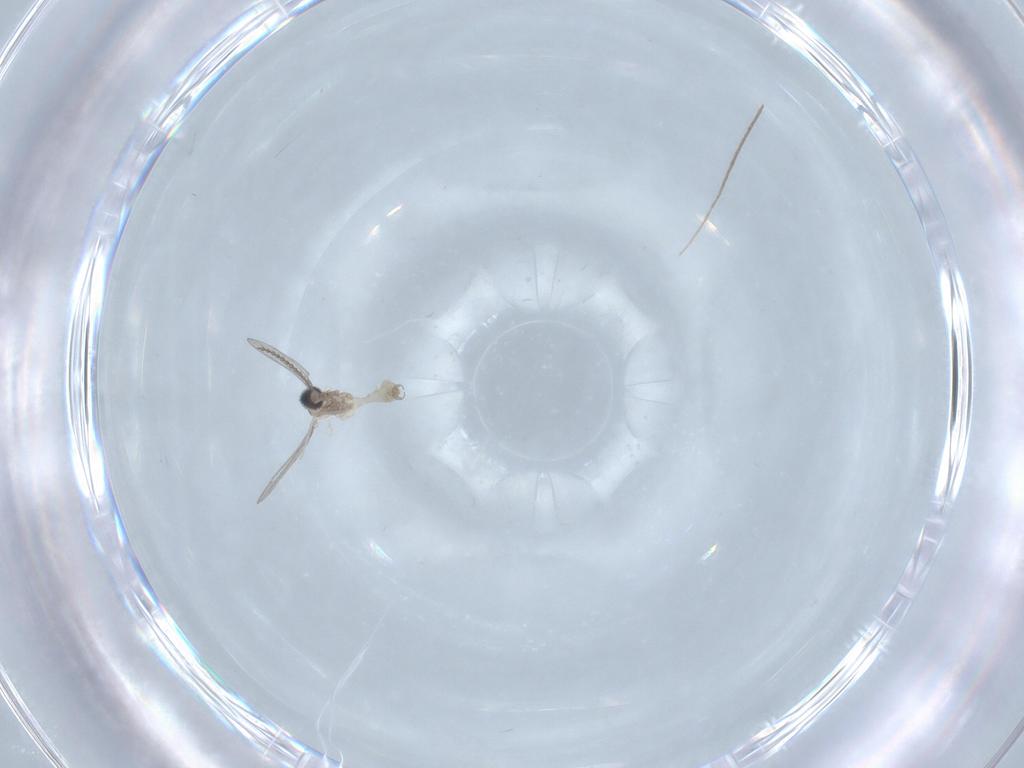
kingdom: Animalia
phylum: Arthropoda
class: Insecta
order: Diptera
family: Chironomidae
